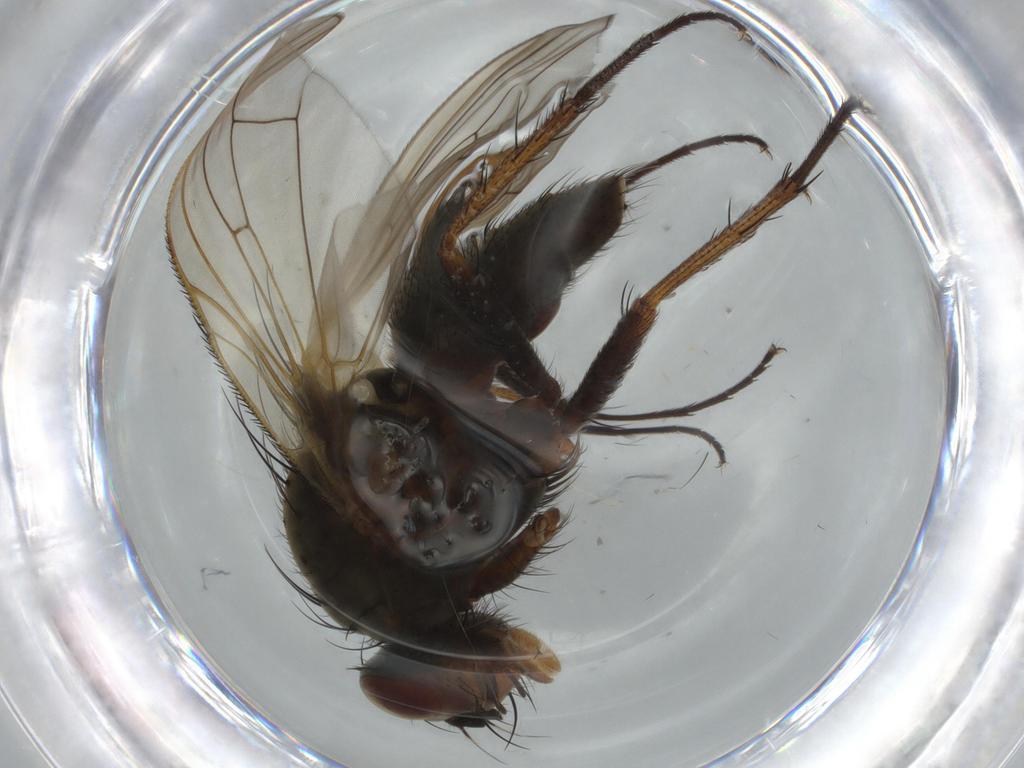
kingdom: Animalia
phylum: Arthropoda
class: Insecta
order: Diptera
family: Anthomyiidae
